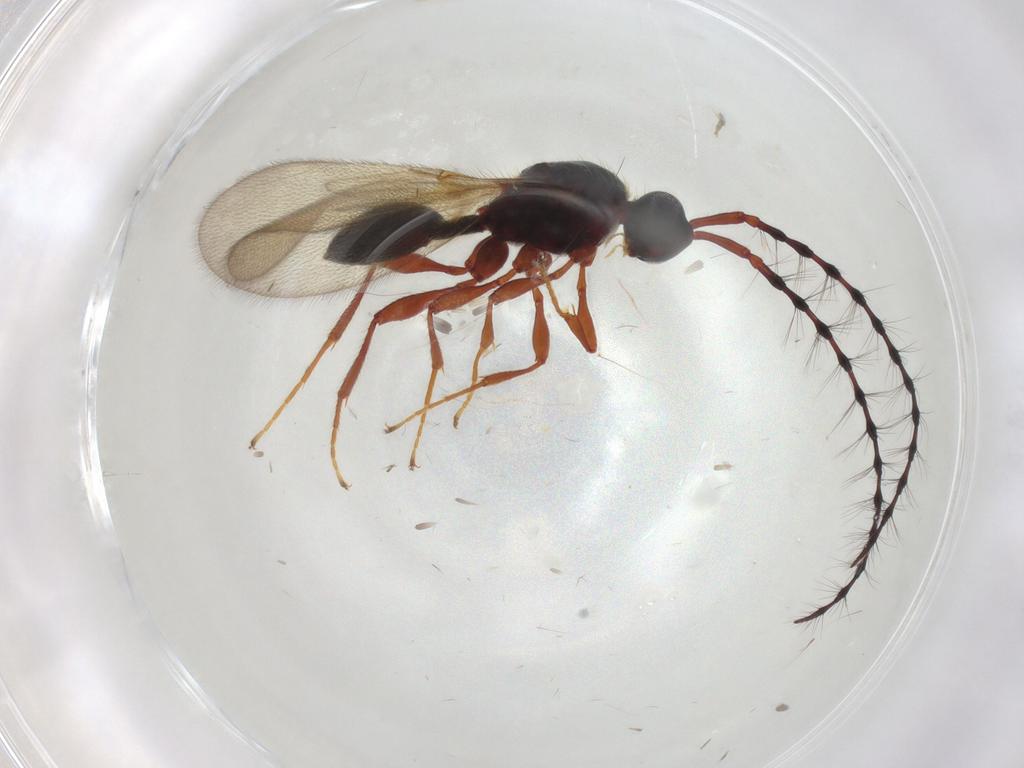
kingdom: Animalia
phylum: Arthropoda
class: Insecta
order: Hymenoptera
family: Diapriidae
